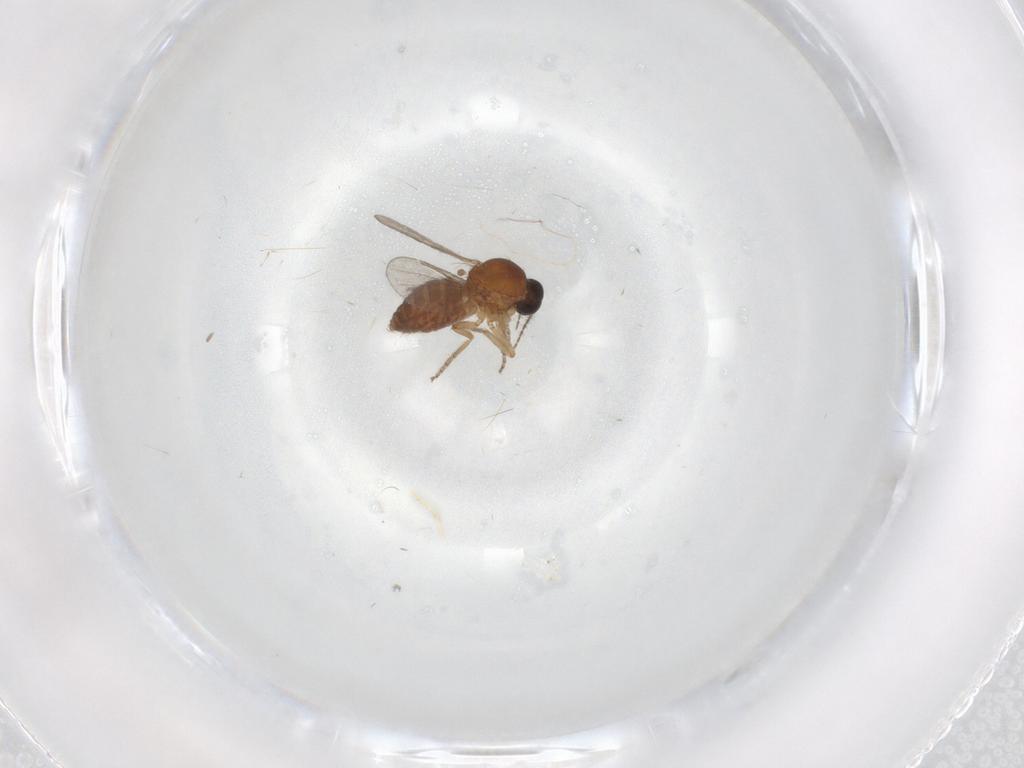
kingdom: Animalia
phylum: Arthropoda
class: Insecta
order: Diptera
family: Ceratopogonidae
